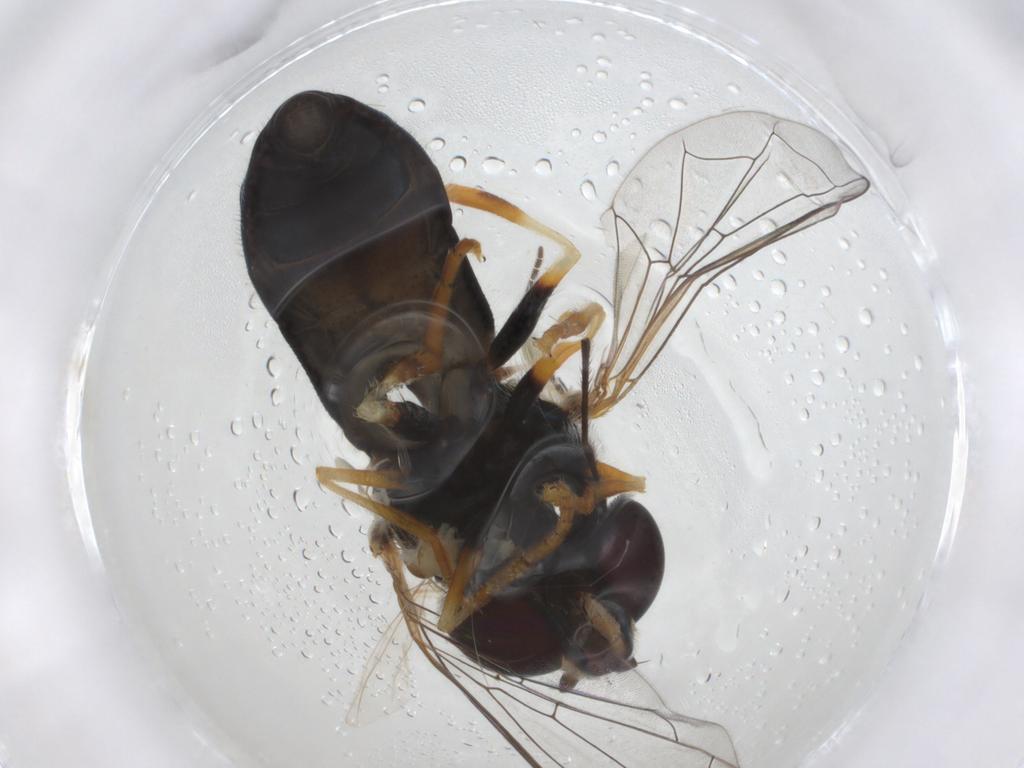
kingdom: Animalia
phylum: Arthropoda
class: Insecta
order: Diptera
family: Syrphidae
